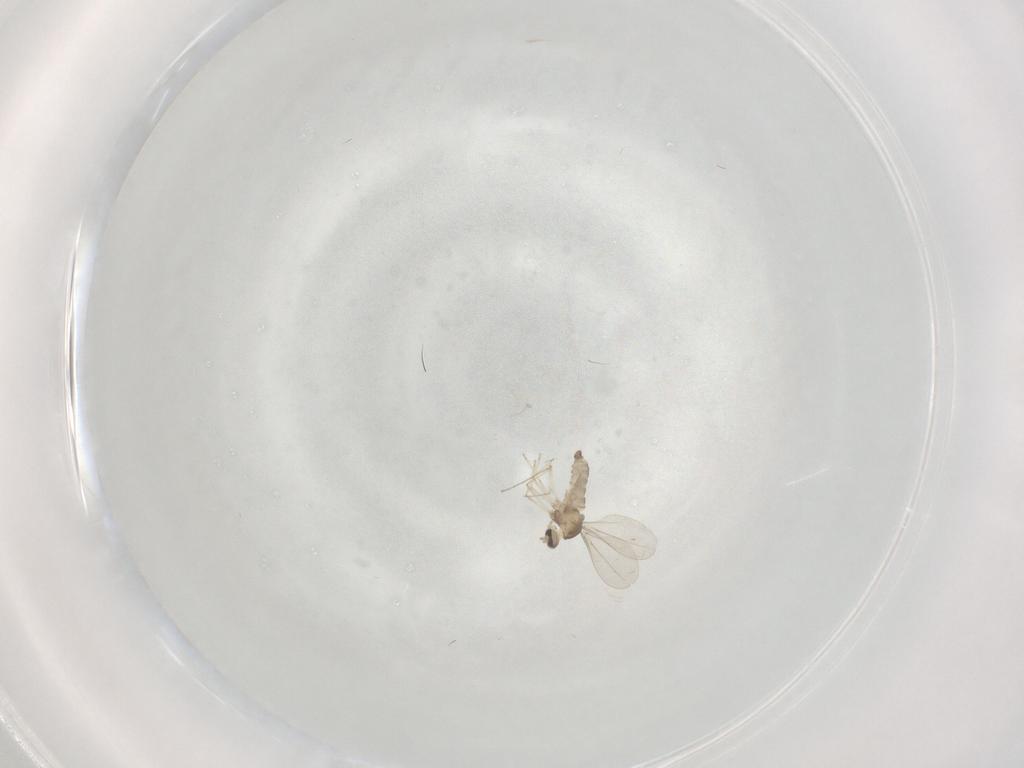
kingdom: Animalia
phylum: Arthropoda
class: Insecta
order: Diptera
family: Cecidomyiidae
